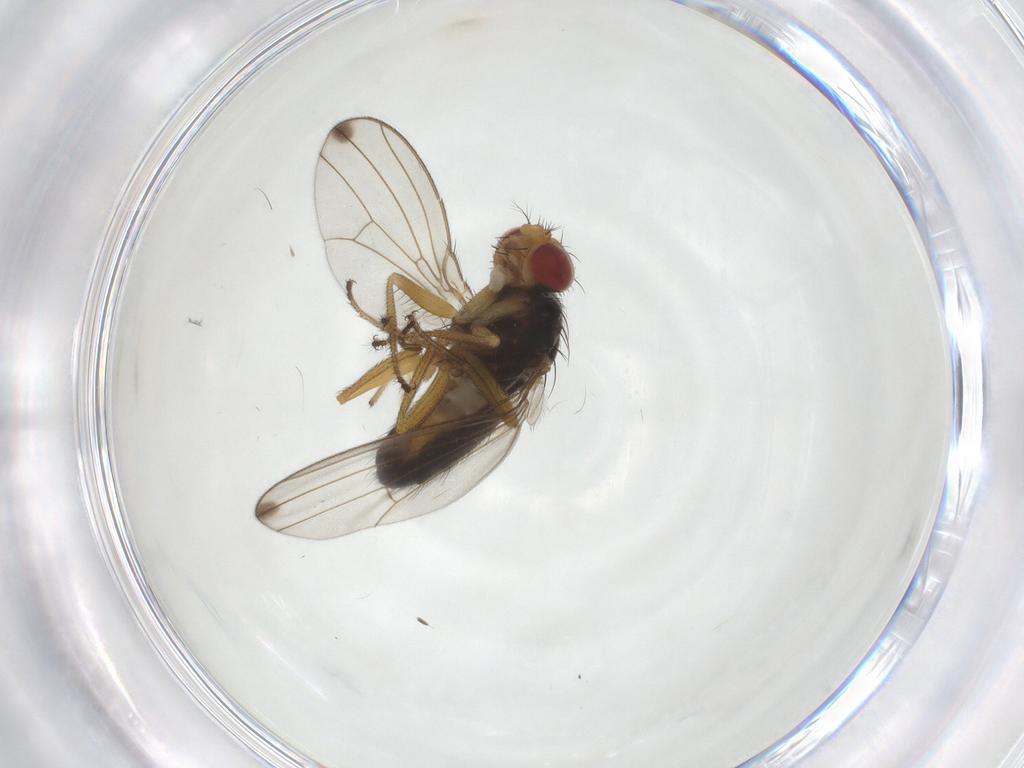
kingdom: Animalia
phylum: Arthropoda
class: Insecta
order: Diptera
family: Drosophilidae
